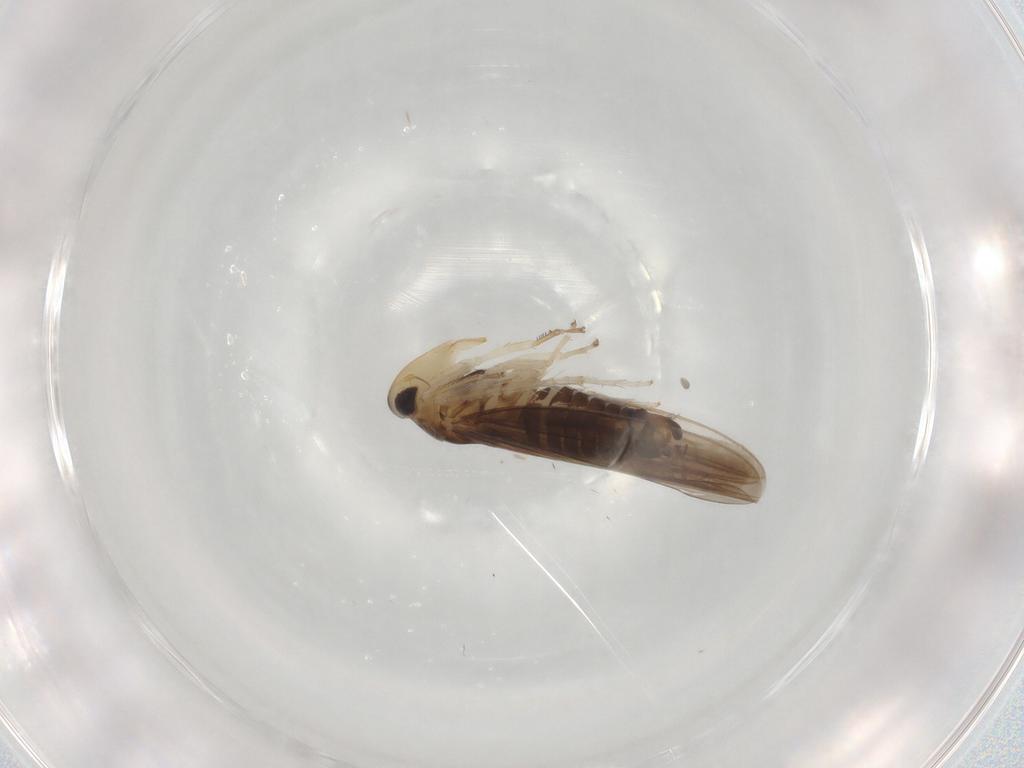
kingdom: Animalia
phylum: Arthropoda
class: Insecta
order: Hemiptera
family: Cicadellidae
